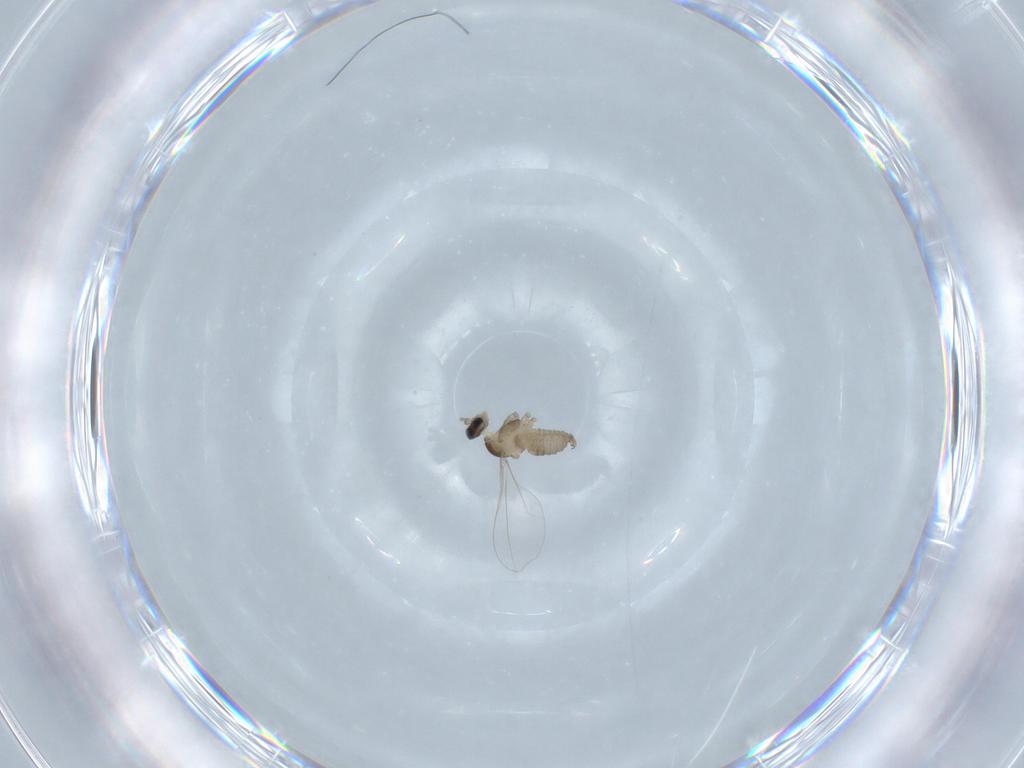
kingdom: Animalia
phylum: Arthropoda
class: Insecta
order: Diptera
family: Cecidomyiidae
